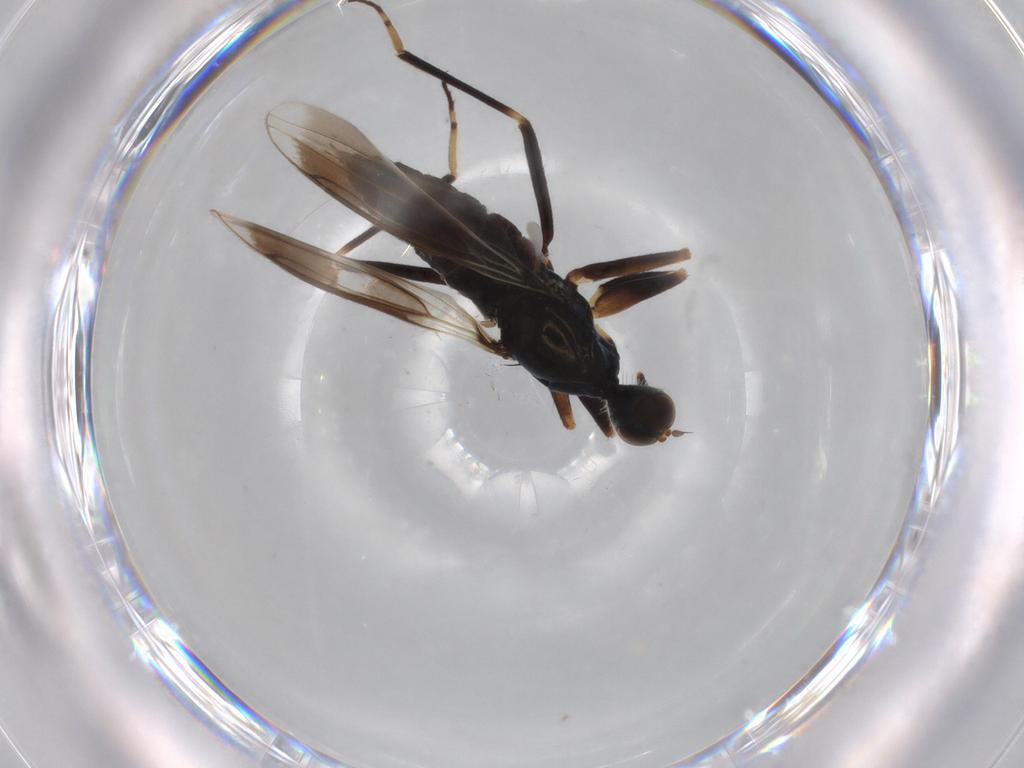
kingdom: Animalia
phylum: Arthropoda
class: Insecta
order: Diptera
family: Hybotidae
